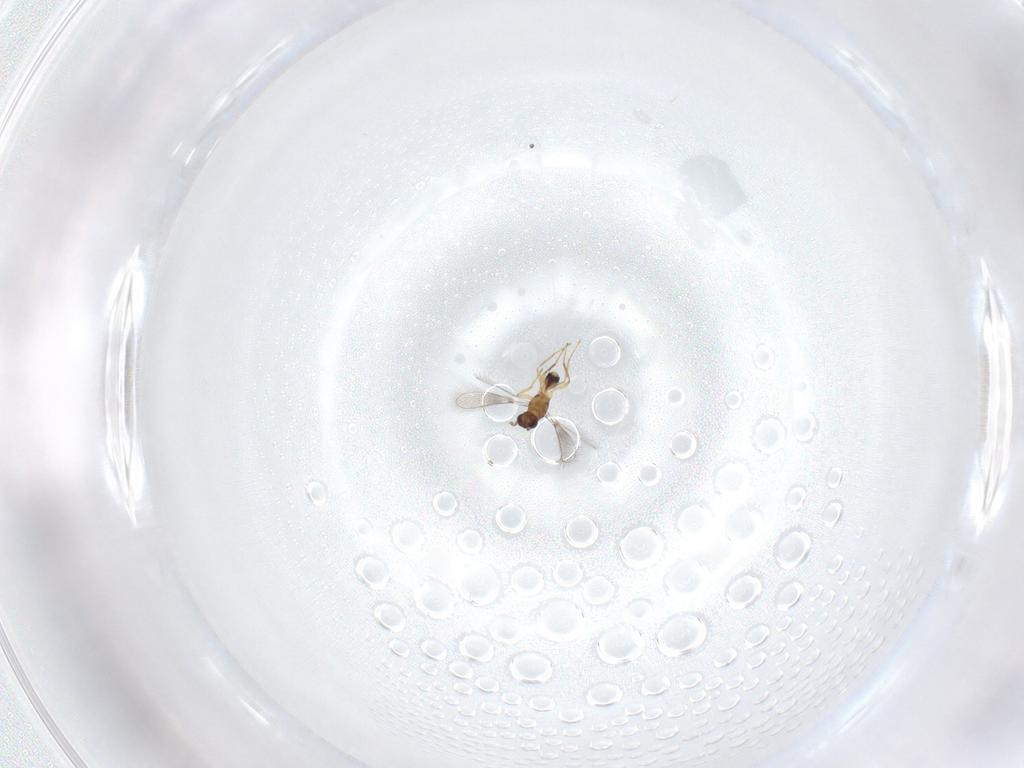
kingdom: Animalia
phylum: Arthropoda
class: Insecta
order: Hymenoptera
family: Mymaridae
